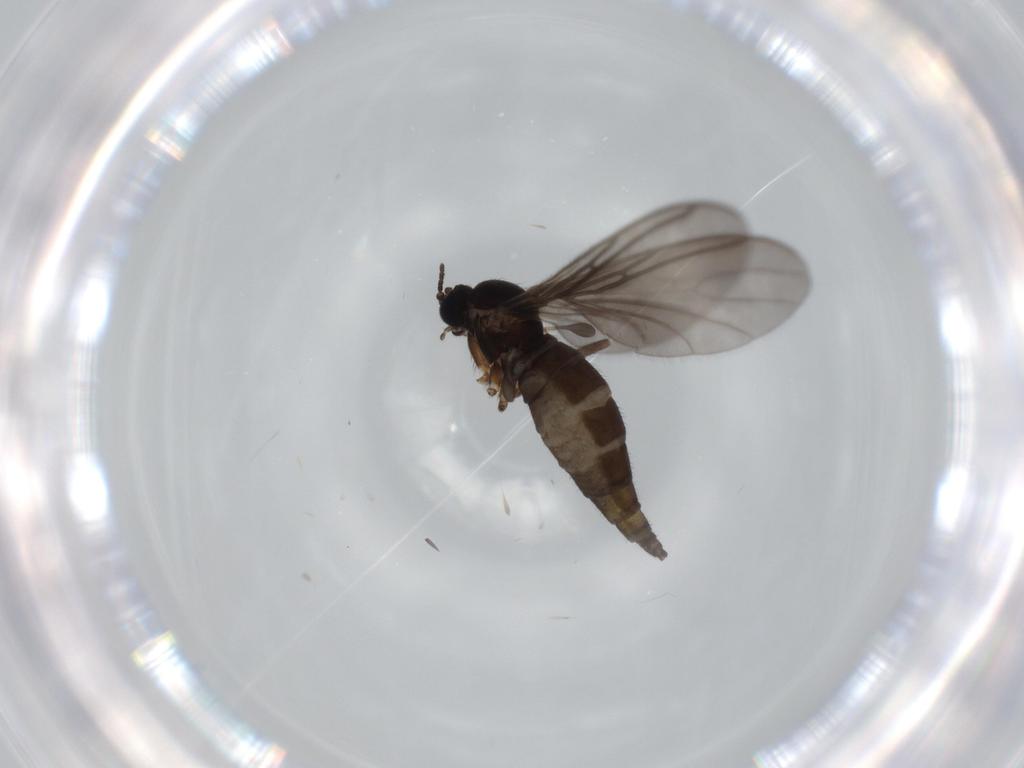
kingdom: Animalia
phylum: Arthropoda
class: Insecta
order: Diptera
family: Sciaridae
